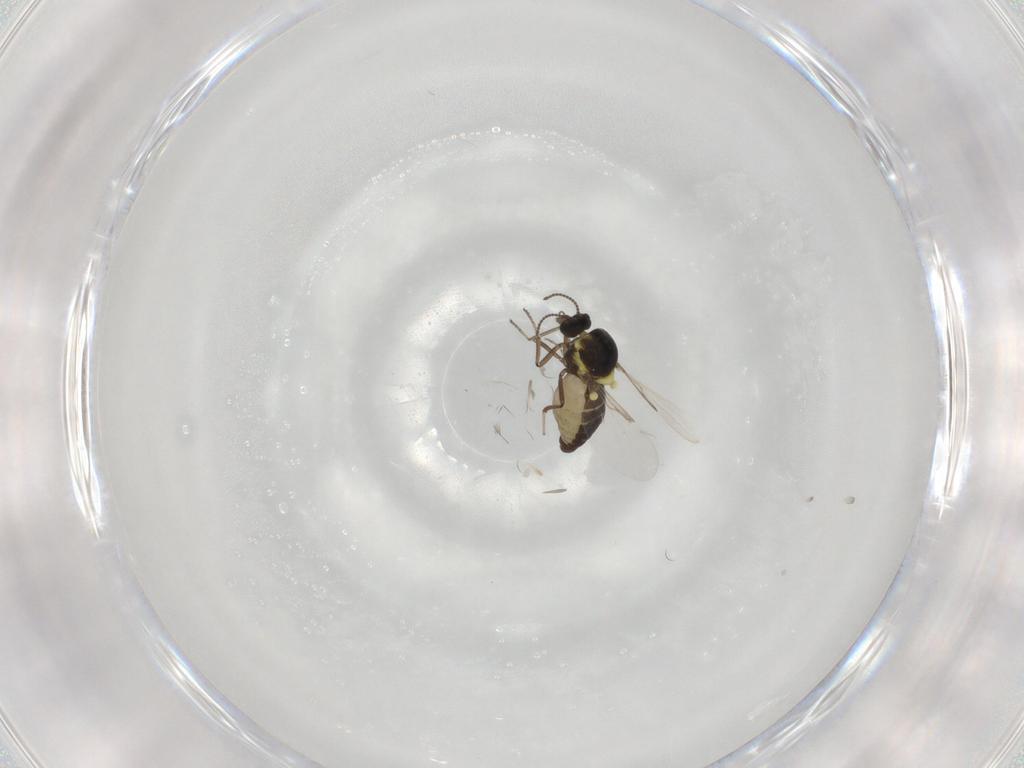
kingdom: Animalia
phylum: Arthropoda
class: Insecta
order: Diptera
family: Ceratopogonidae
